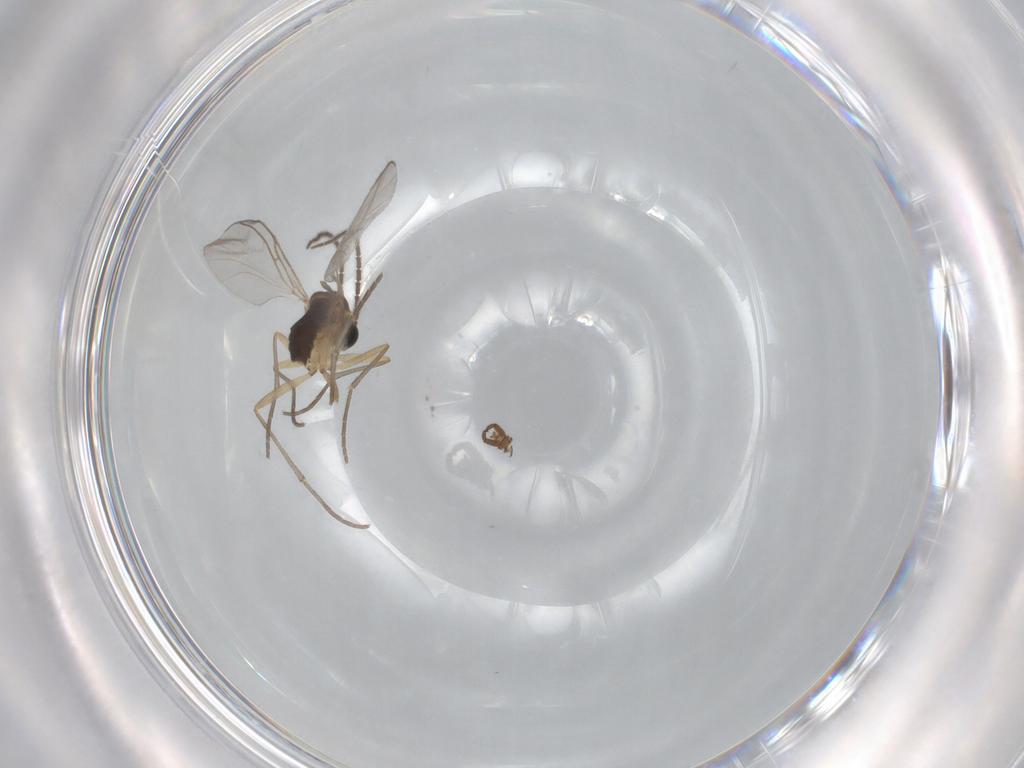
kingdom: Animalia
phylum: Arthropoda
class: Insecta
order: Diptera
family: Sciaridae
